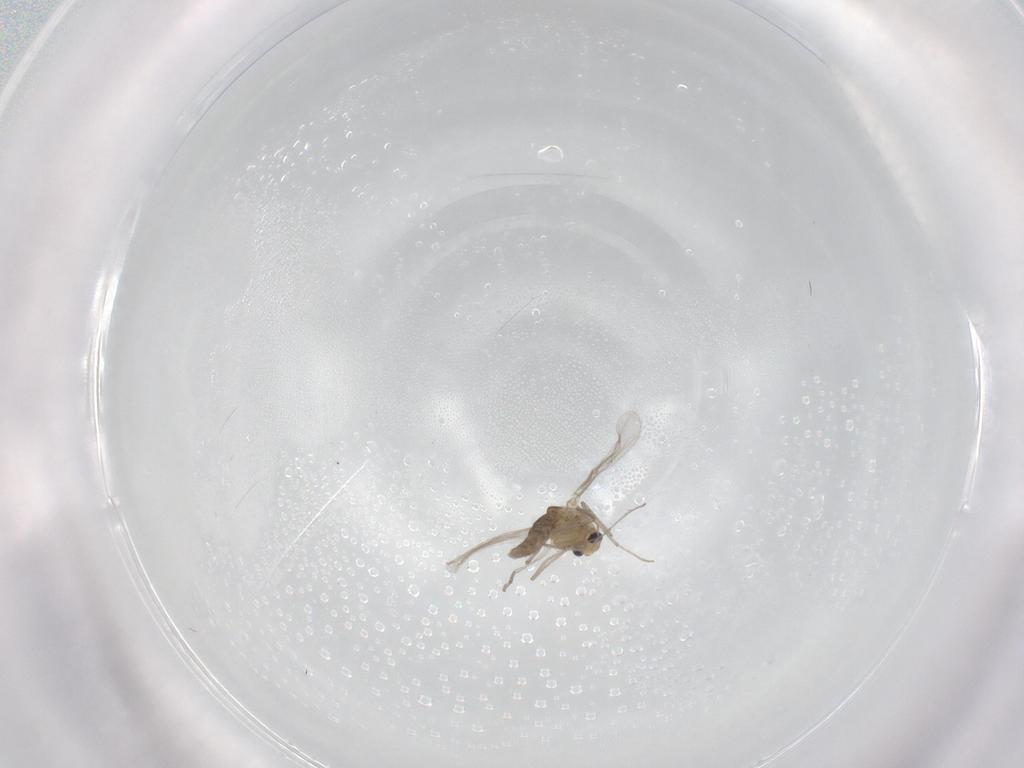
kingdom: Animalia
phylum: Arthropoda
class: Insecta
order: Diptera
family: Chironomidae
